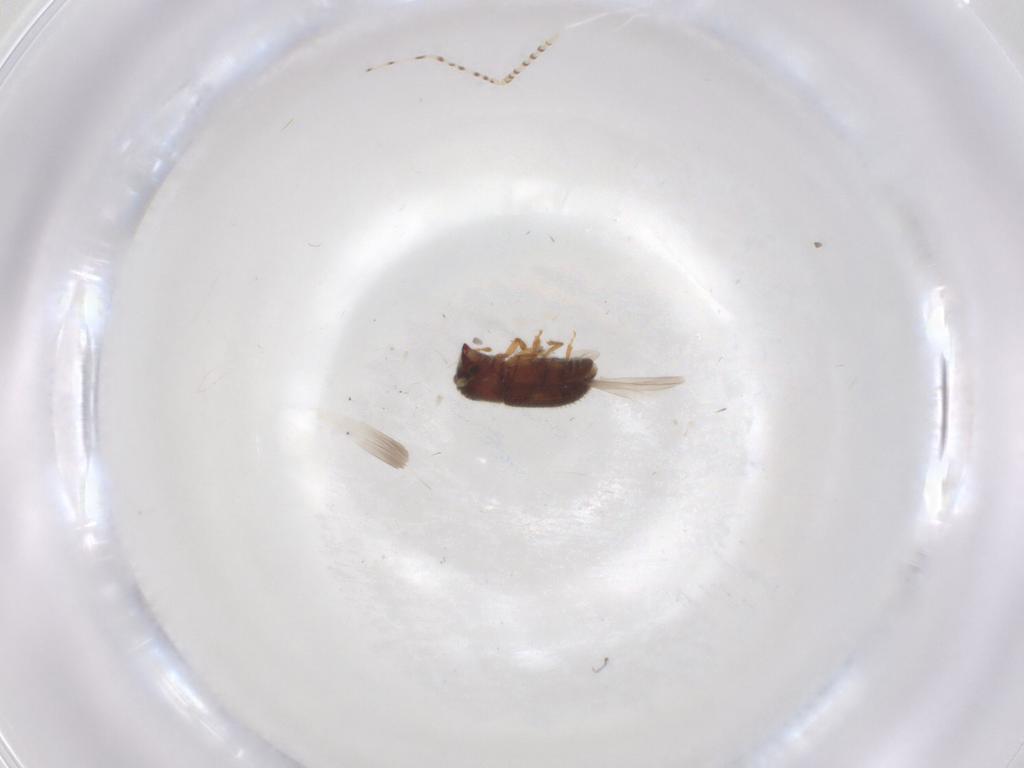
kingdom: Animalia
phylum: Arthropoda
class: Insecta
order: Coleoptera
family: Curculionidae
